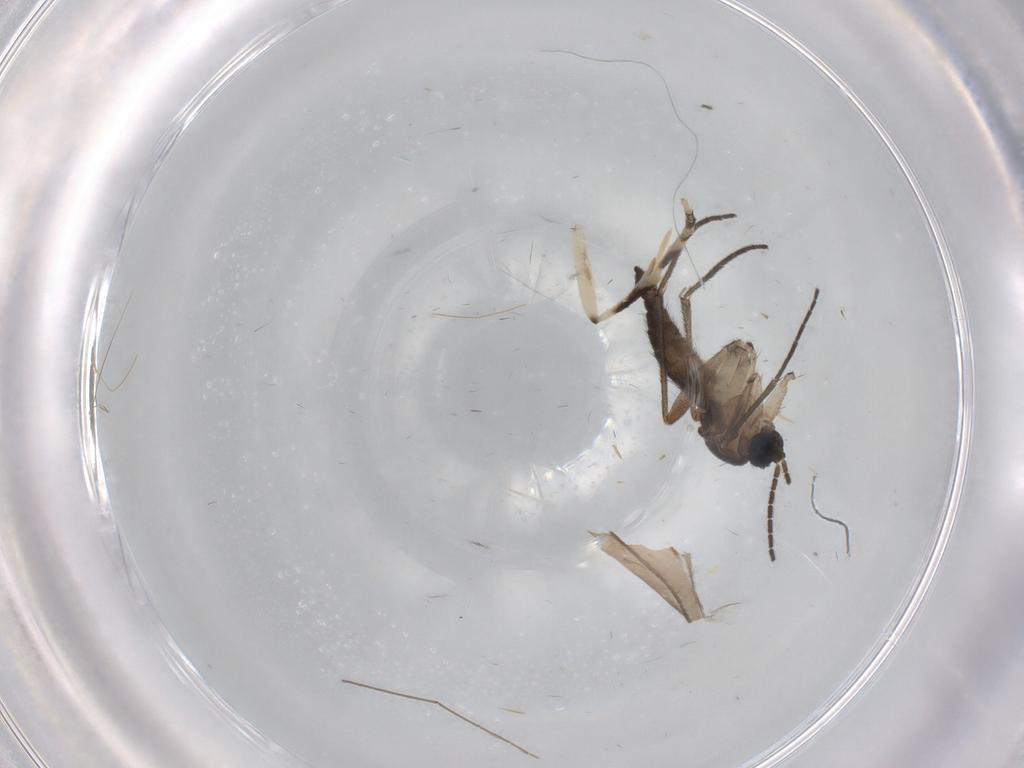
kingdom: Animalia
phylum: Arthropoda
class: Insecta
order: Diptera
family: Sciaridae
